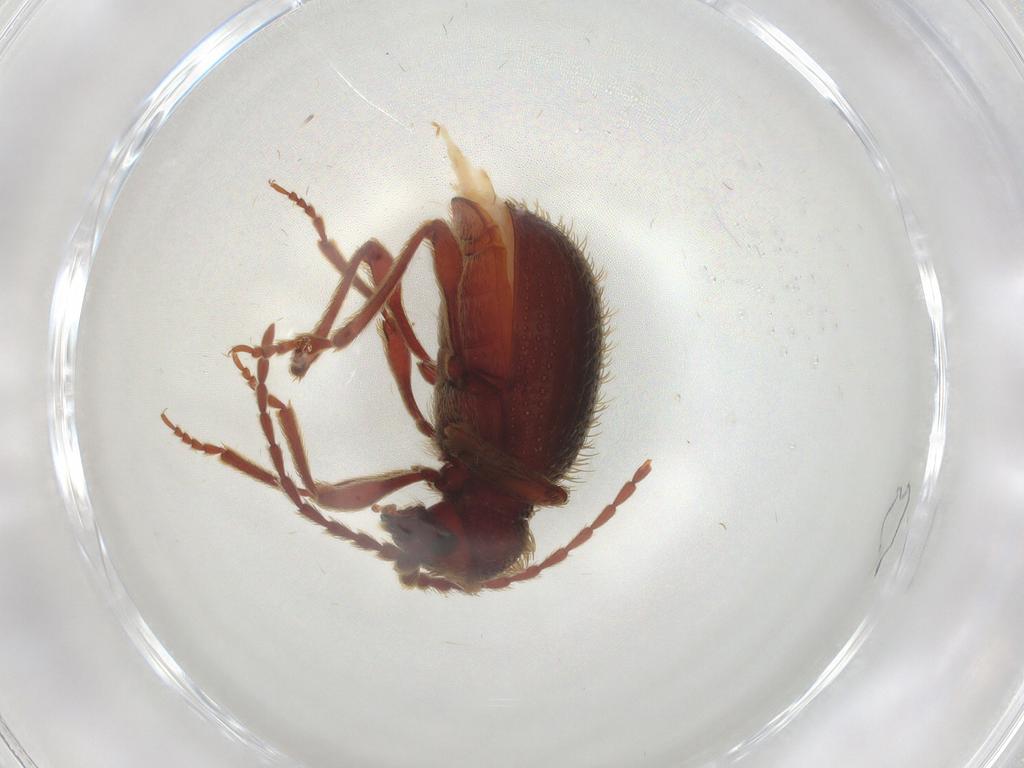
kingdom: Animalia
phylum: Arthropoda
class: Insecta
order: Coleoptera
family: Ptinidae
